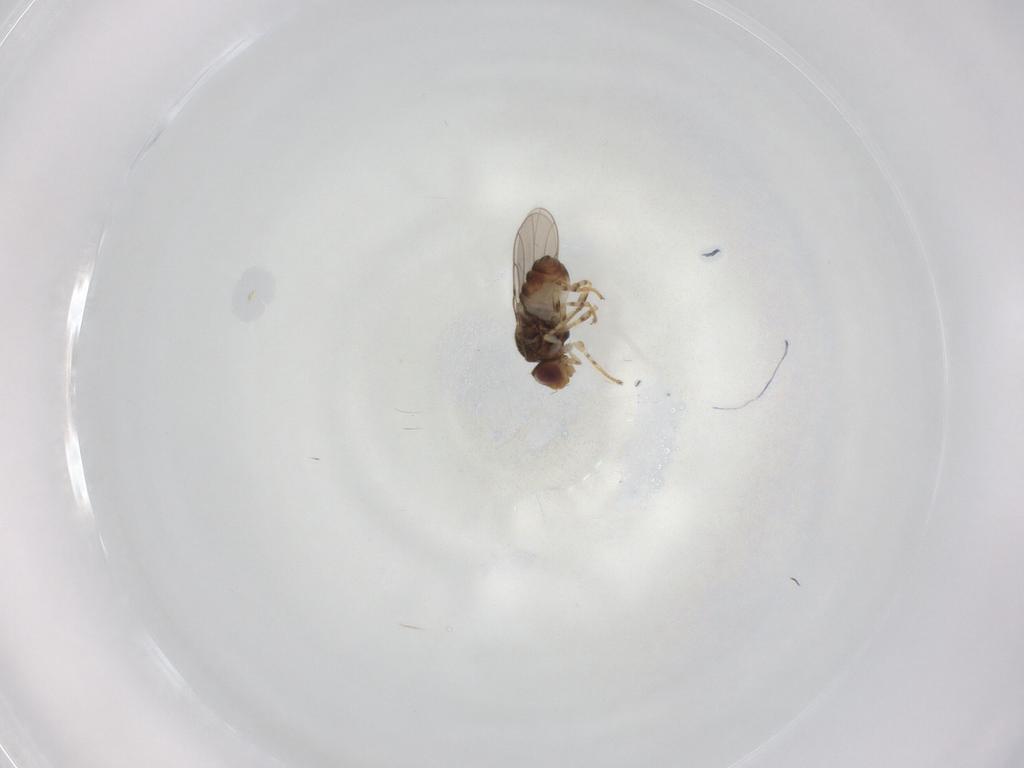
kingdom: Animalia
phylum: Arthropoda
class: Insecta
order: Diptera
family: Chloropidae
